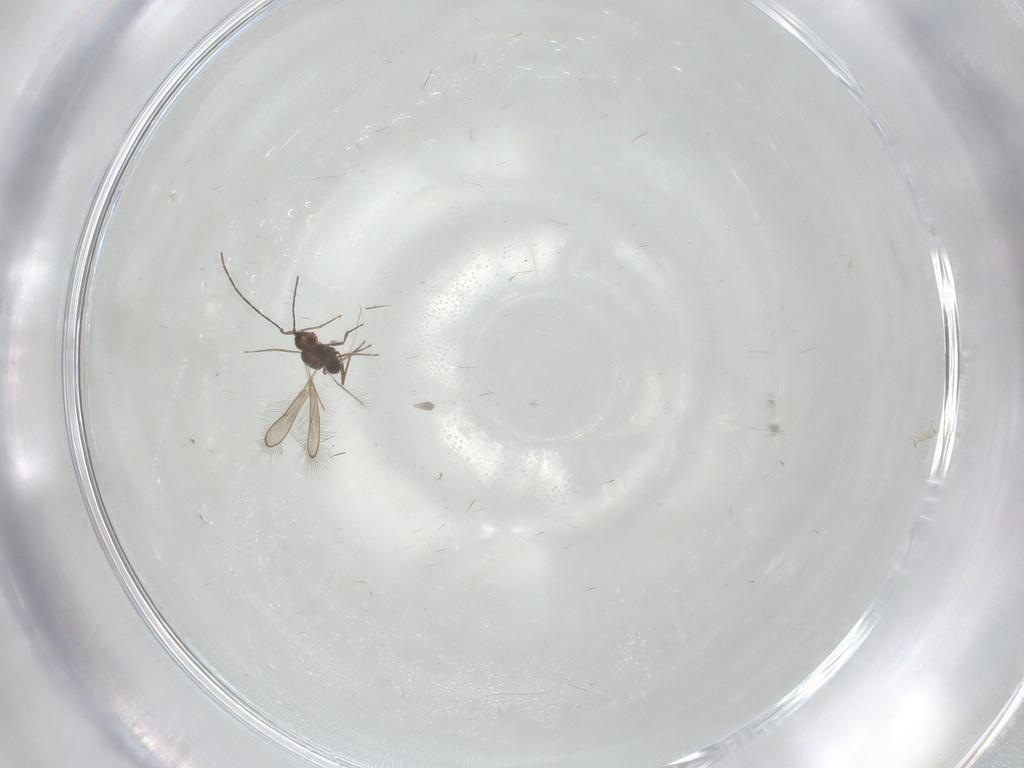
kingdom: Animalia
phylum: Arthropoda
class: Insecta
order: Diptera
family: Cecidomyiidae
